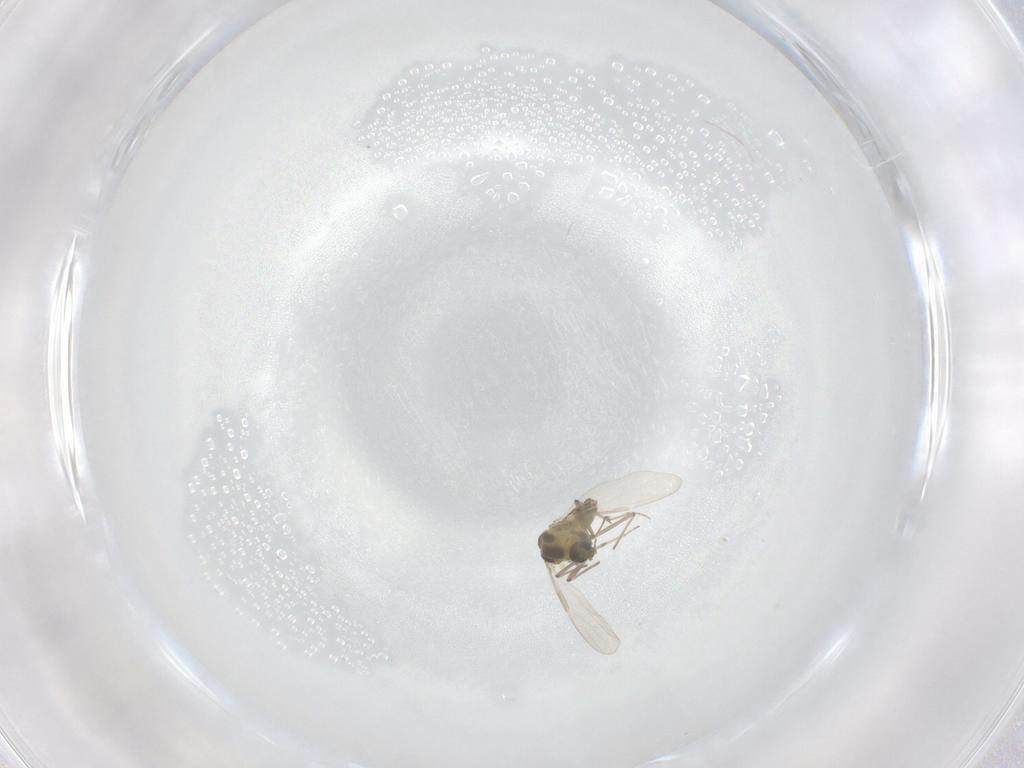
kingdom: Animalia
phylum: Arthropoda
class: Insecta
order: Diptera
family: Chironomidae
